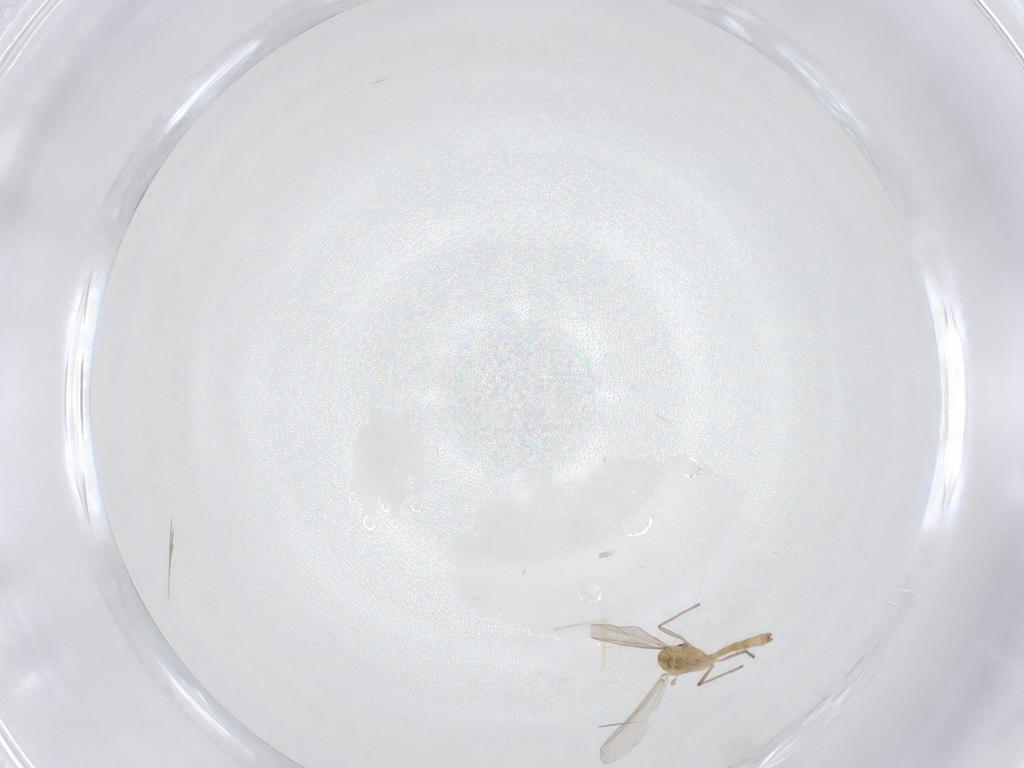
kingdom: Animalia
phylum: Arthropoda
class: Insecta
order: Diptera
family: Chironomidae
